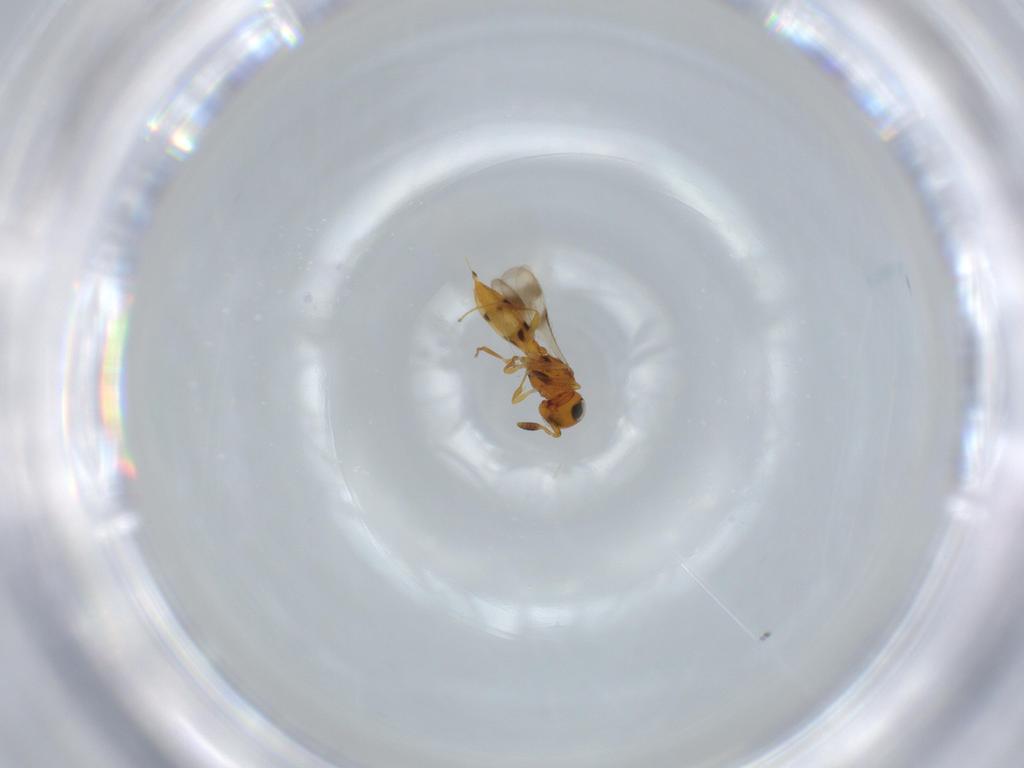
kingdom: Animalia
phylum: Arthropoda
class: Insecta
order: Hymenoptera
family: Scelionidae
